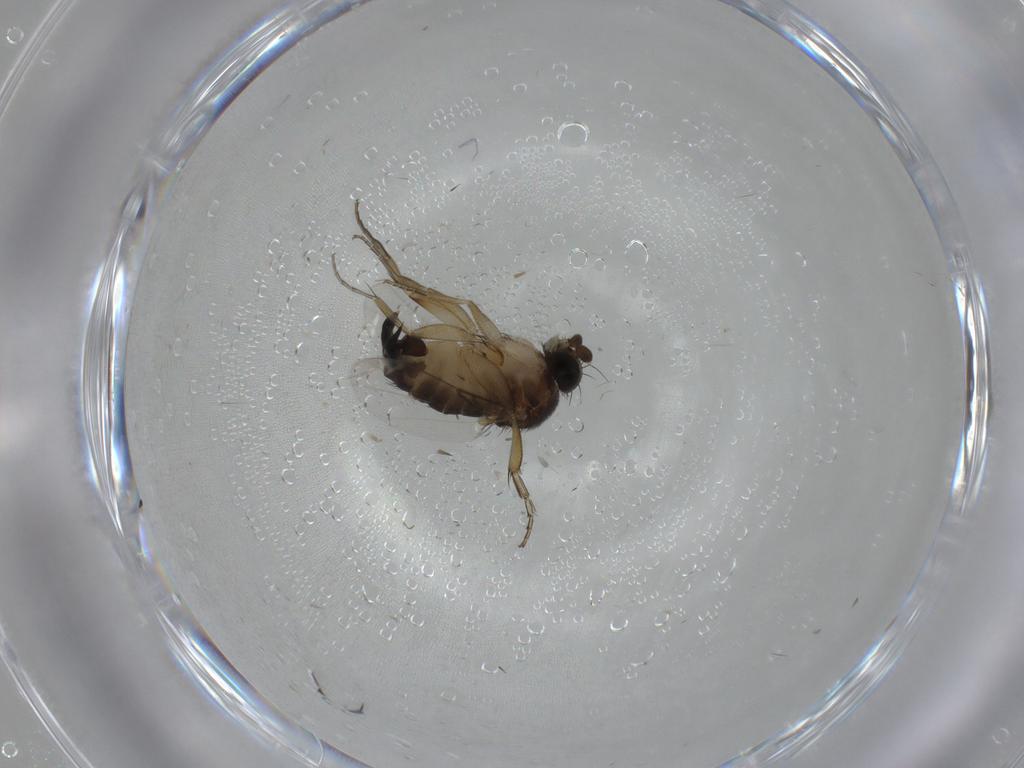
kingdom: Animalia
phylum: Arthropoda
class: Insecta
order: Diptera
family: Phoridae
